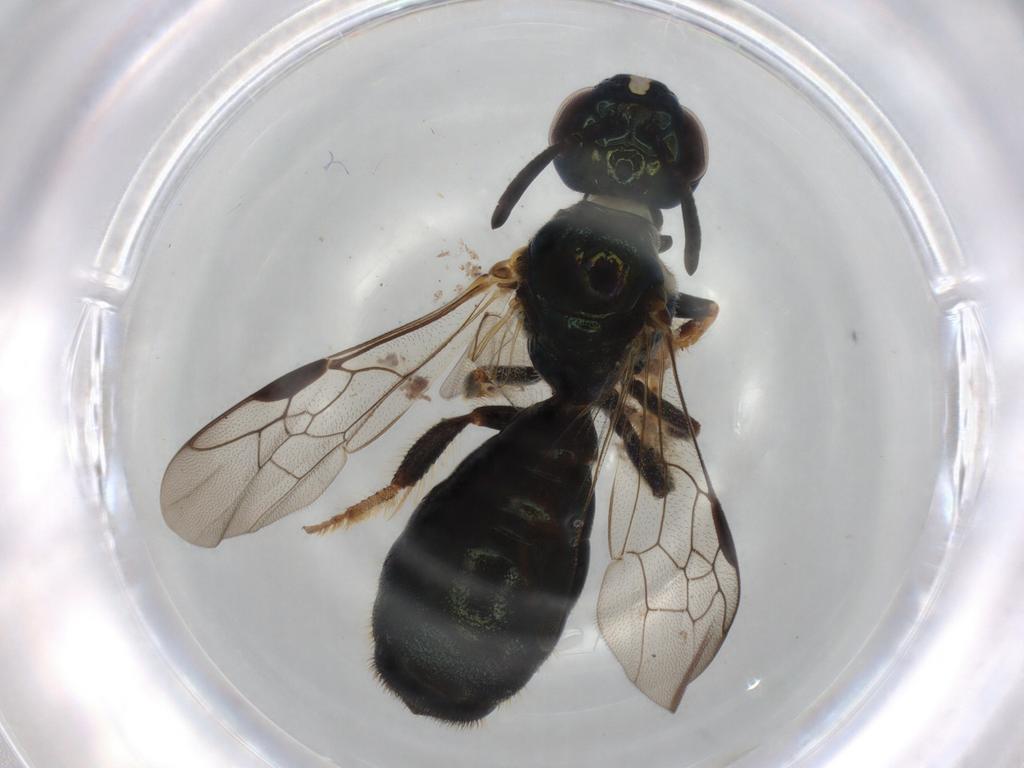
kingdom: Animalia
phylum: Arthropoda
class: Insecta
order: Hymenoptera
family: Apidae
